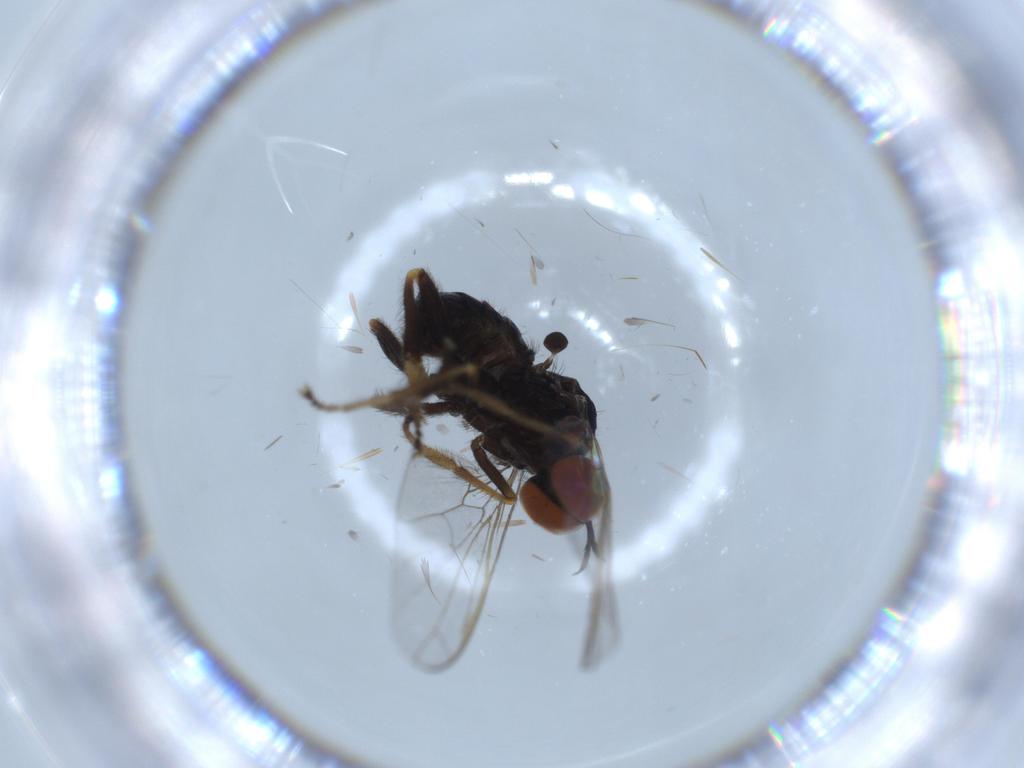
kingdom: Animalia
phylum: Arthropoda
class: Insecta
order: Diptera
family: Empididae
